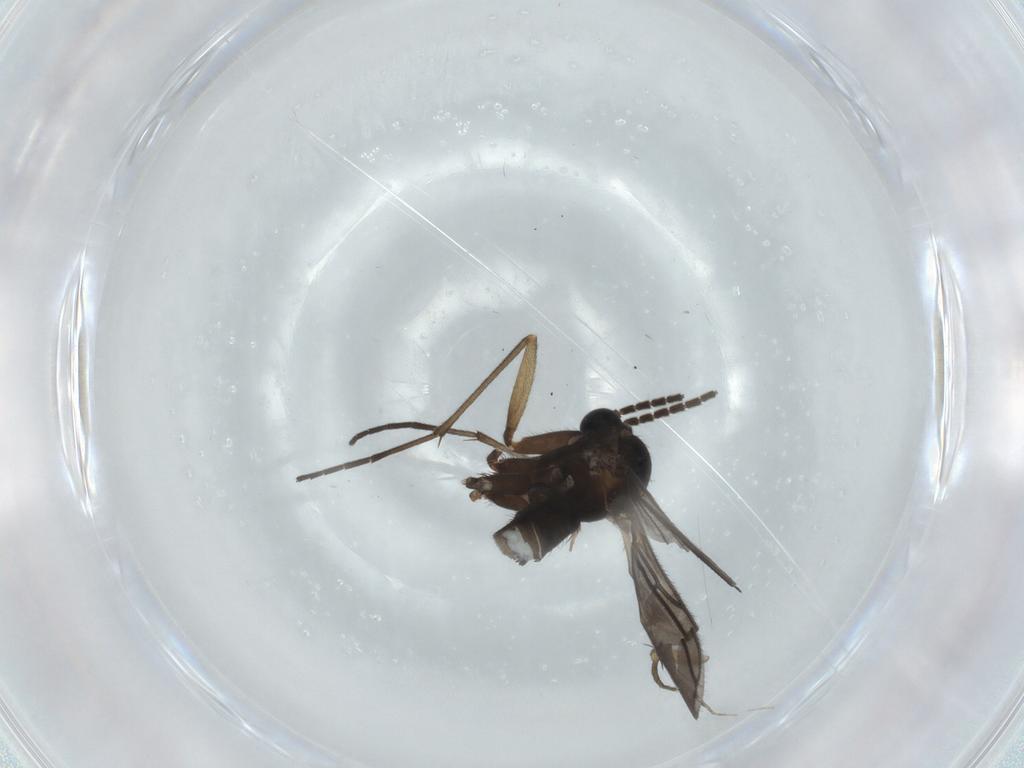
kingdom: Animalia
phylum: Arthropoda
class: Insecta
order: Diptera
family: Sciaridae
